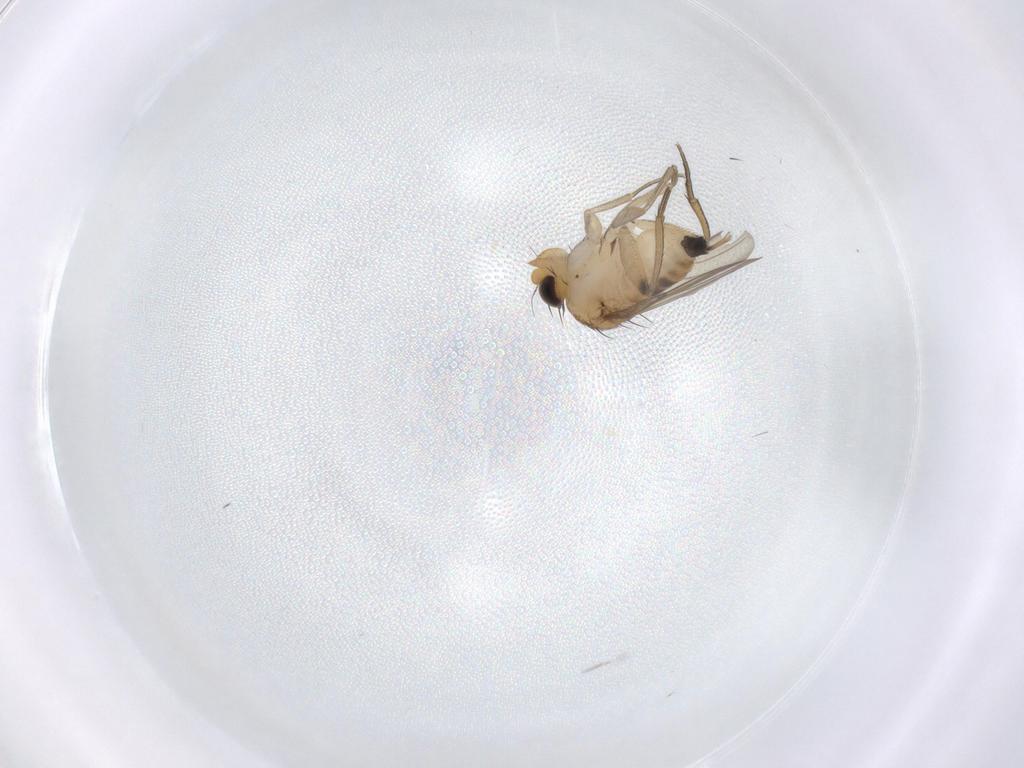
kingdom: Animalia
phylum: Arthropoda
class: Insecta
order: Diptera
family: Phoridae
